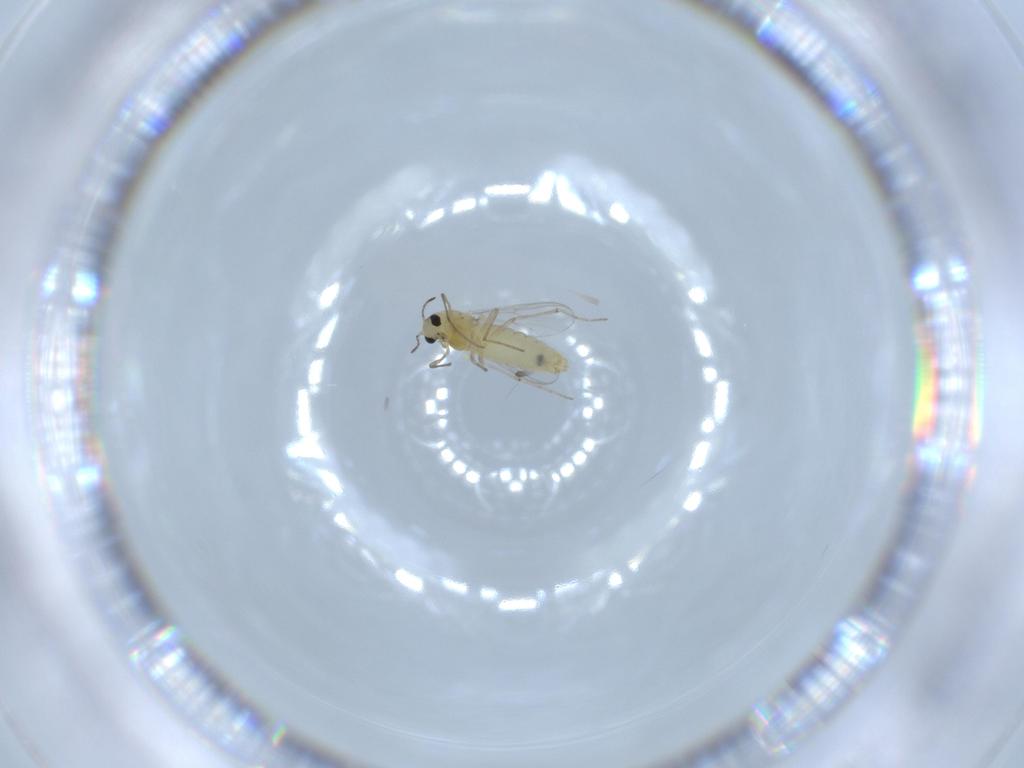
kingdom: Animalia
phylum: Arthropoda
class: Insecta
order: Diptera
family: Chironomidae
